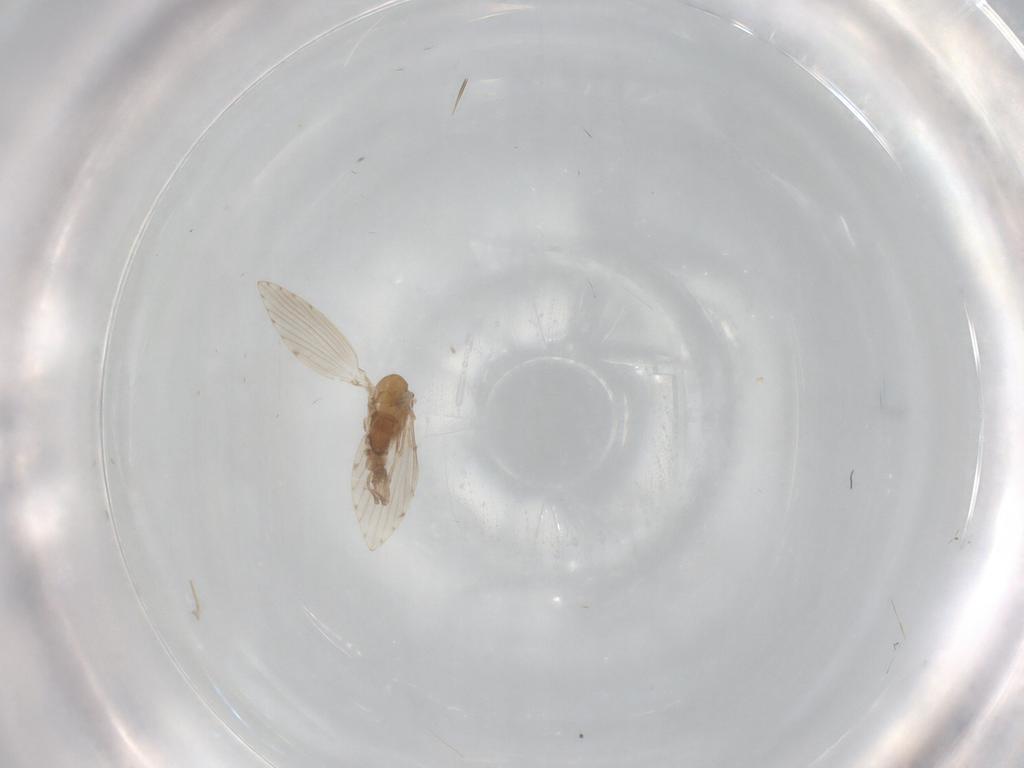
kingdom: Animalia
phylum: Arthropoda
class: Insecta
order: Diptera
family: Psychodidae
